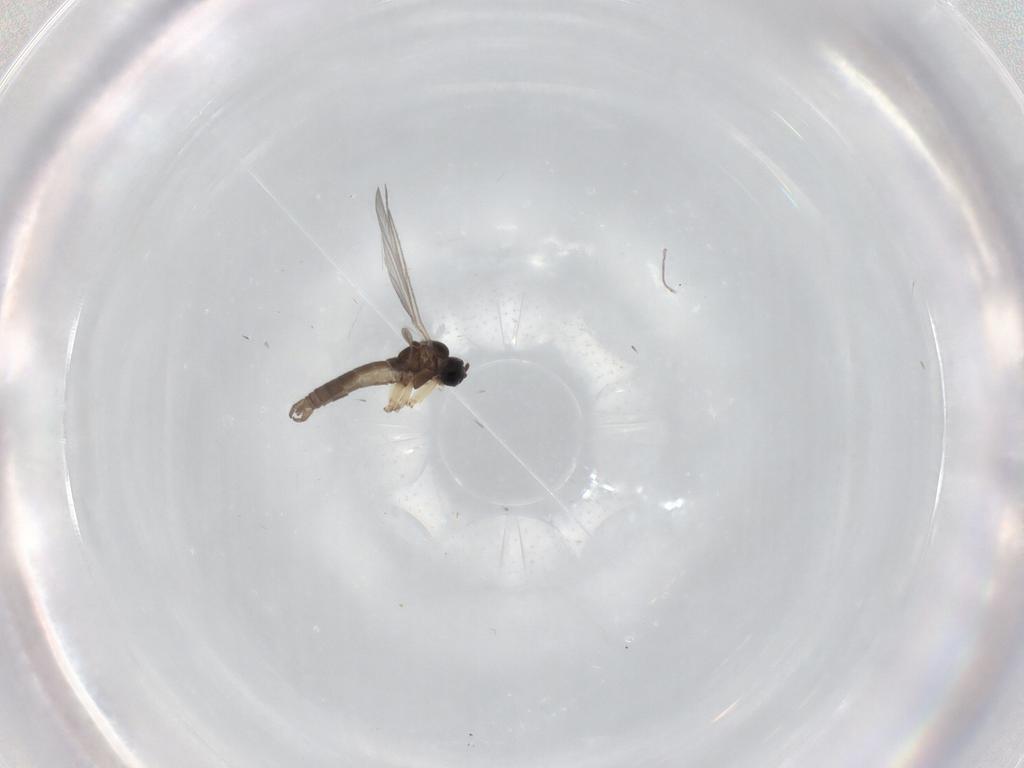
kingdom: Animalia
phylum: Arthropoda
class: Insecta
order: Diptera
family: Sciaridae
